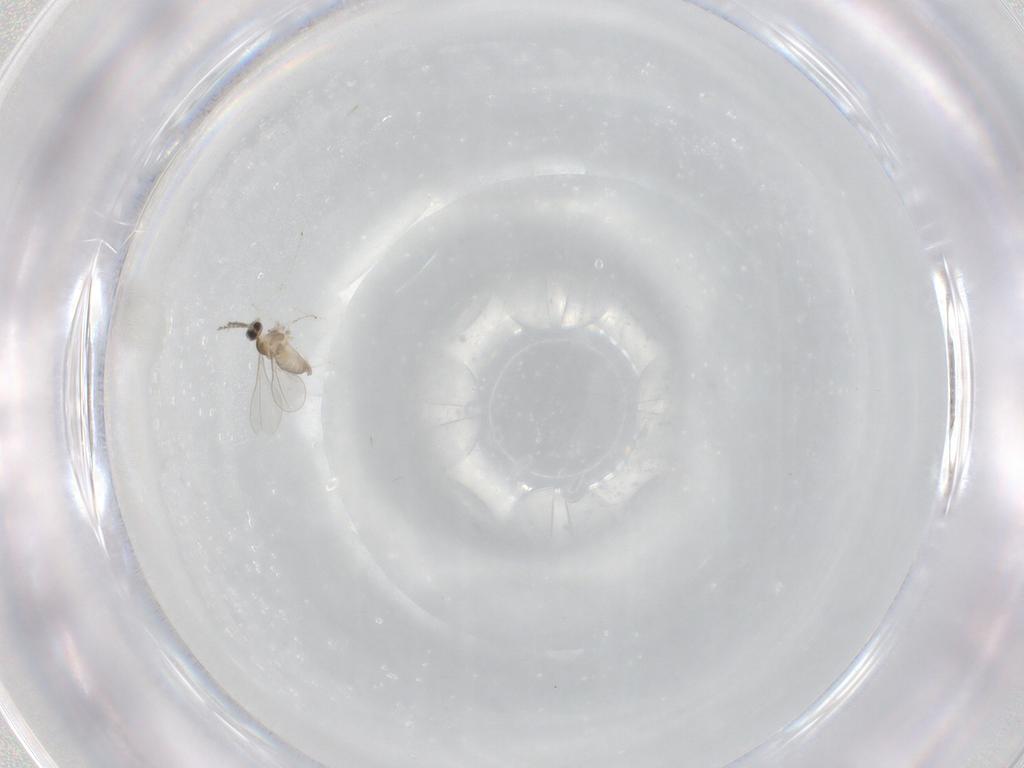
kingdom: Animalia
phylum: Arthropoda
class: Insecta
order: Diptera
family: Cecidomyiidae
